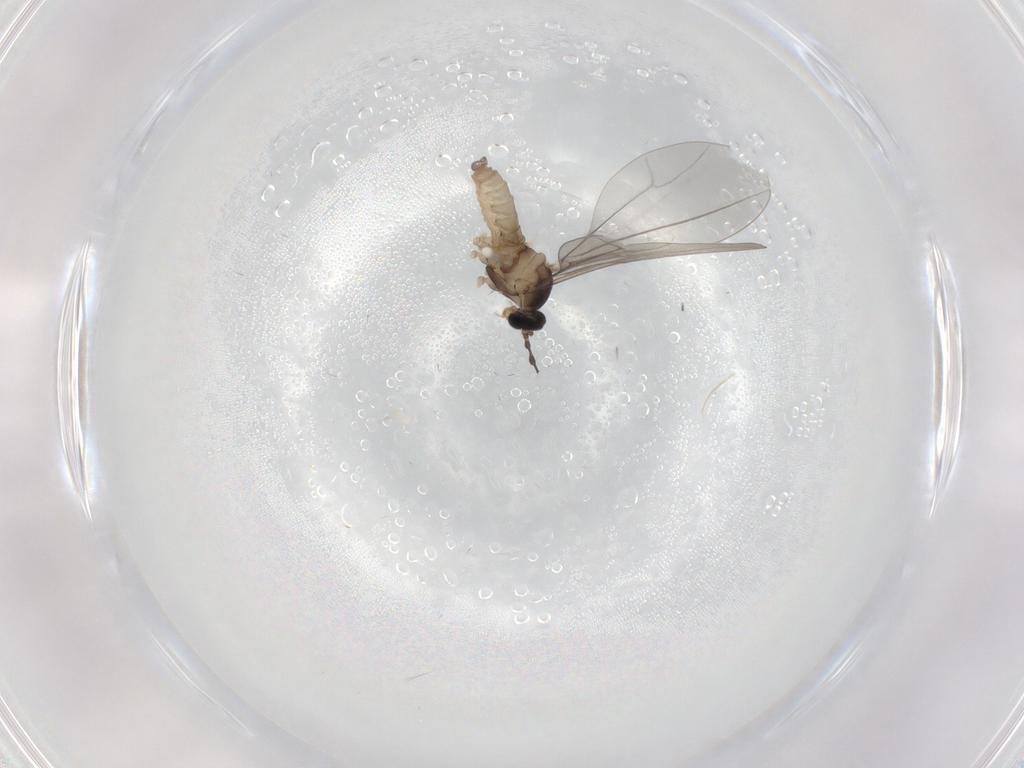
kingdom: Animalia
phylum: Arthropoda
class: Insecta
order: Diptera
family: Cecidomyiidae
